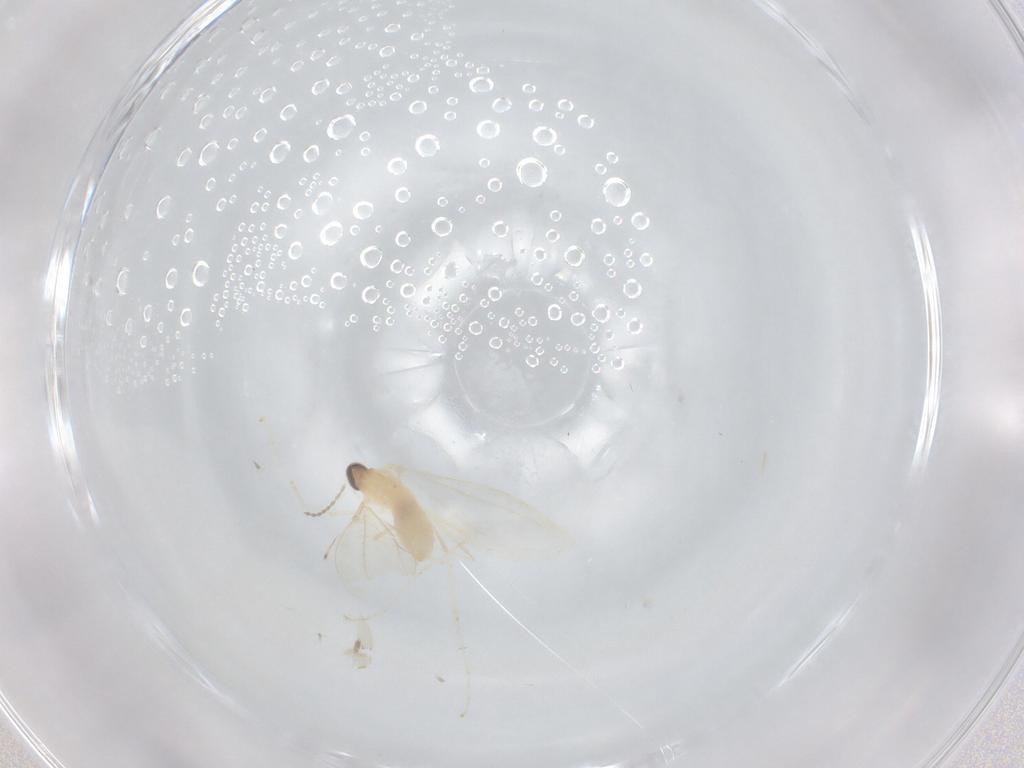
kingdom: Animalia
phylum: Arthropoda
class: Insecta
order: Diptera
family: Cecidomyiidae
